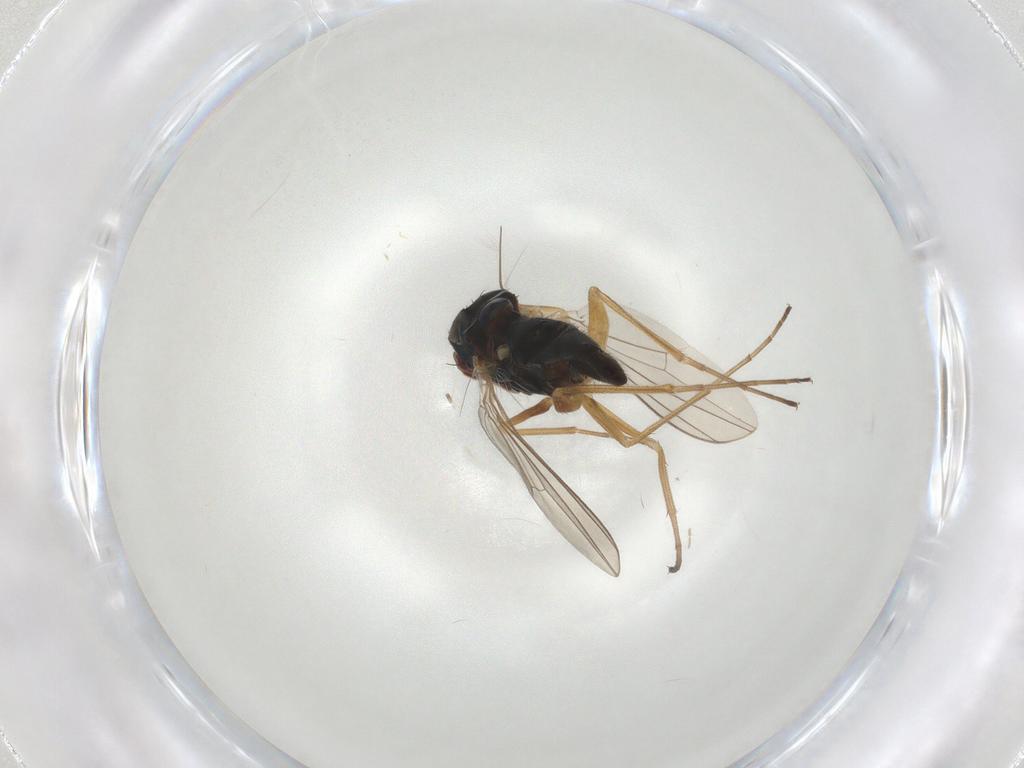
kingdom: Animalia
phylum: Arthropoda
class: Insecta
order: Diptera
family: Dolichopodidae
